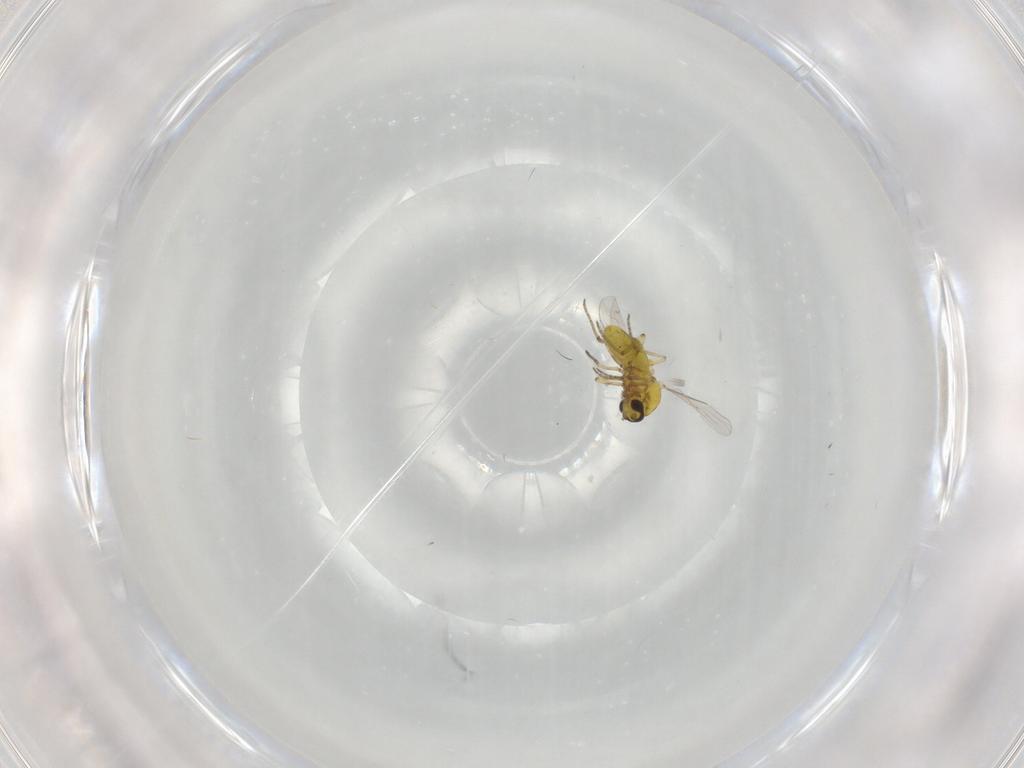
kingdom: Animalia
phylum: Arthropoda
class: Insecta
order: Diptera
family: Ceratopogonidae
